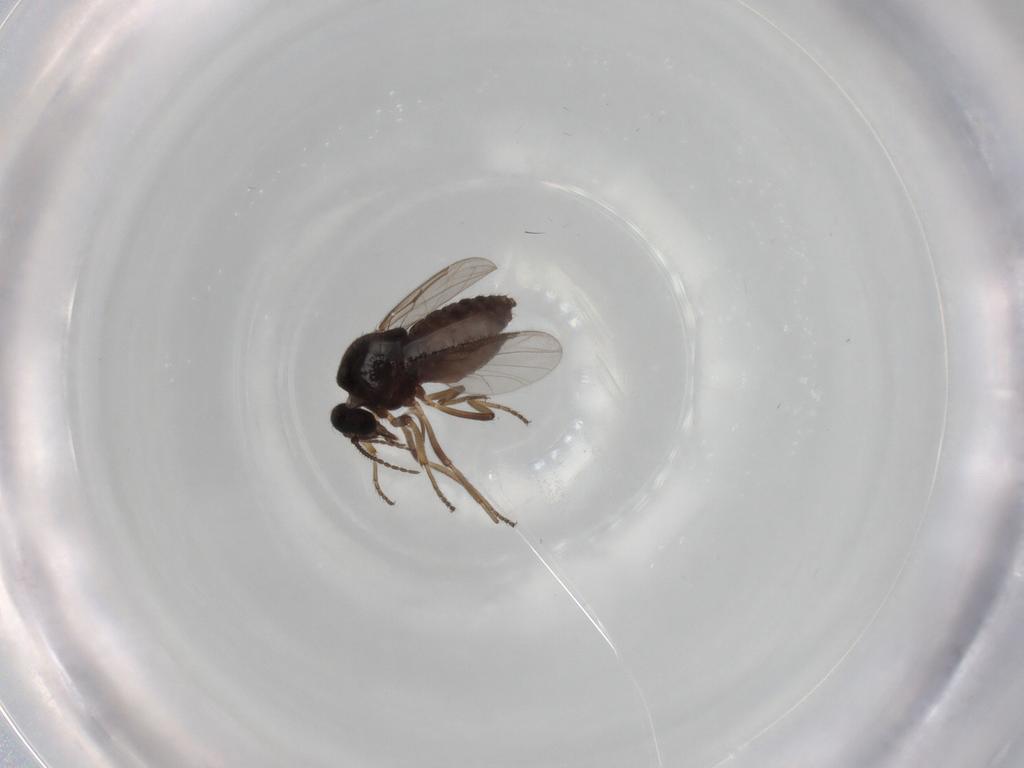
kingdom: Animalia
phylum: Arthropoda
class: Insecta
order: Diptera
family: Ceratopogonidae
